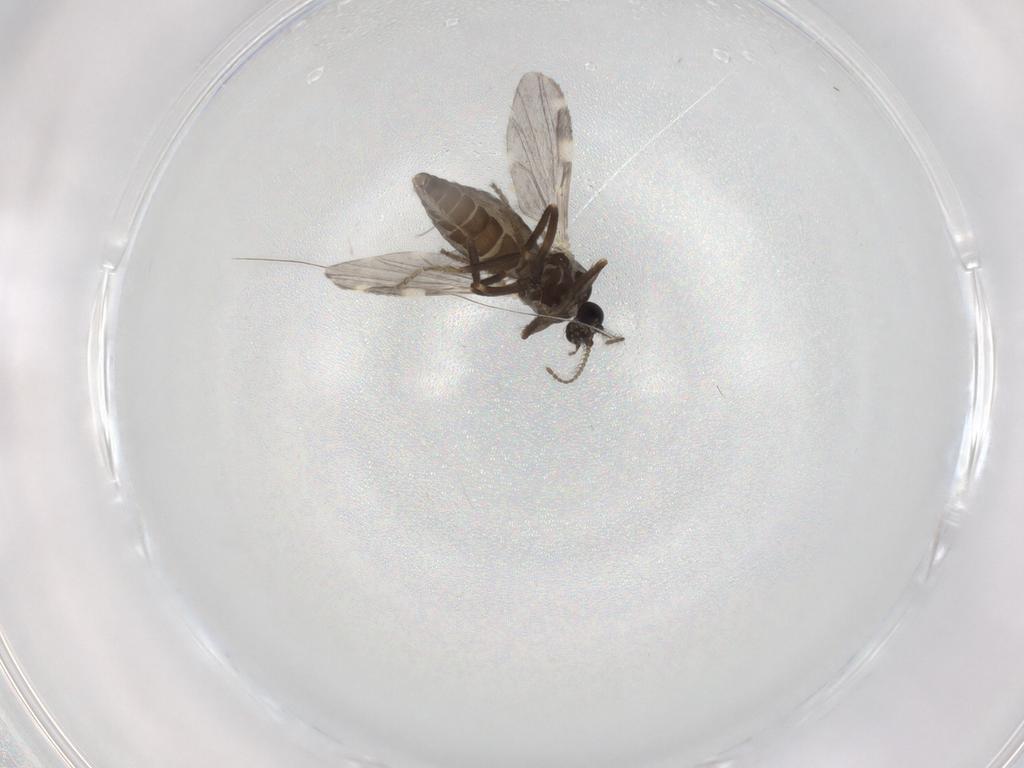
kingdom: Animalia
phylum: Arthropoda
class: Insecta
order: Diptera
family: Ceratopogonidae
